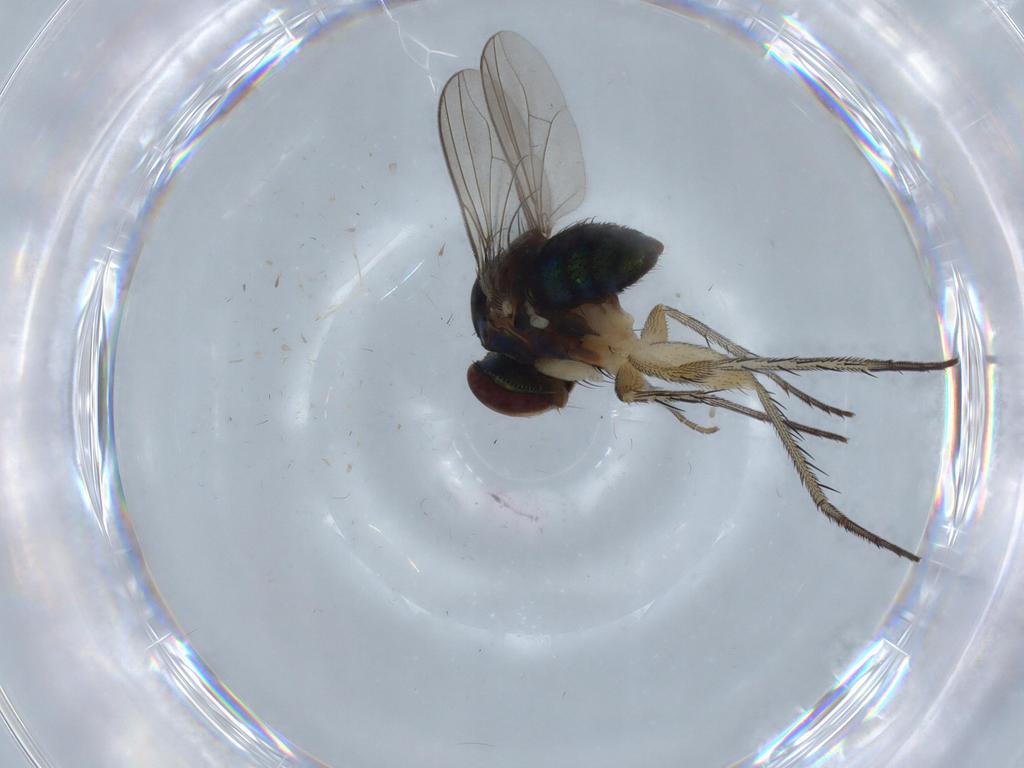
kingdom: Animalia
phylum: Arthropoda
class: Insecta
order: Diptera
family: Dolichopodidae
